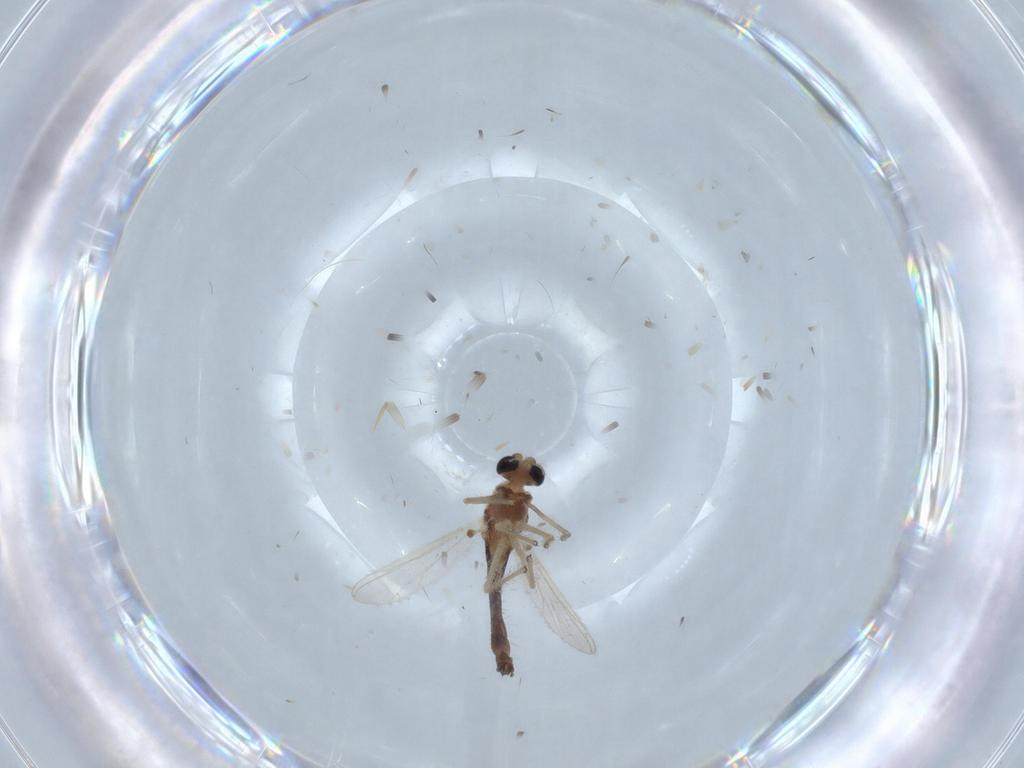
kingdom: Animalia
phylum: Arthropoda
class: Insecta
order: Diptera
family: Chironomidae
